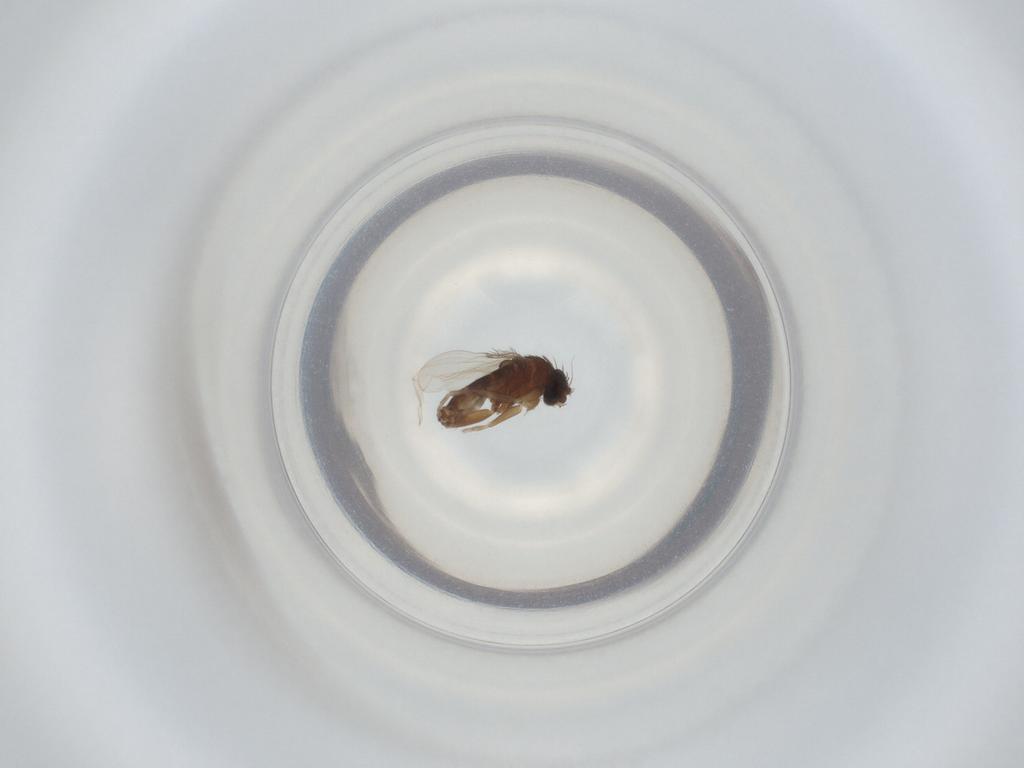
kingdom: Animalia
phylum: Arthropoda
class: Insecta
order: Diptera
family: Phoridae
